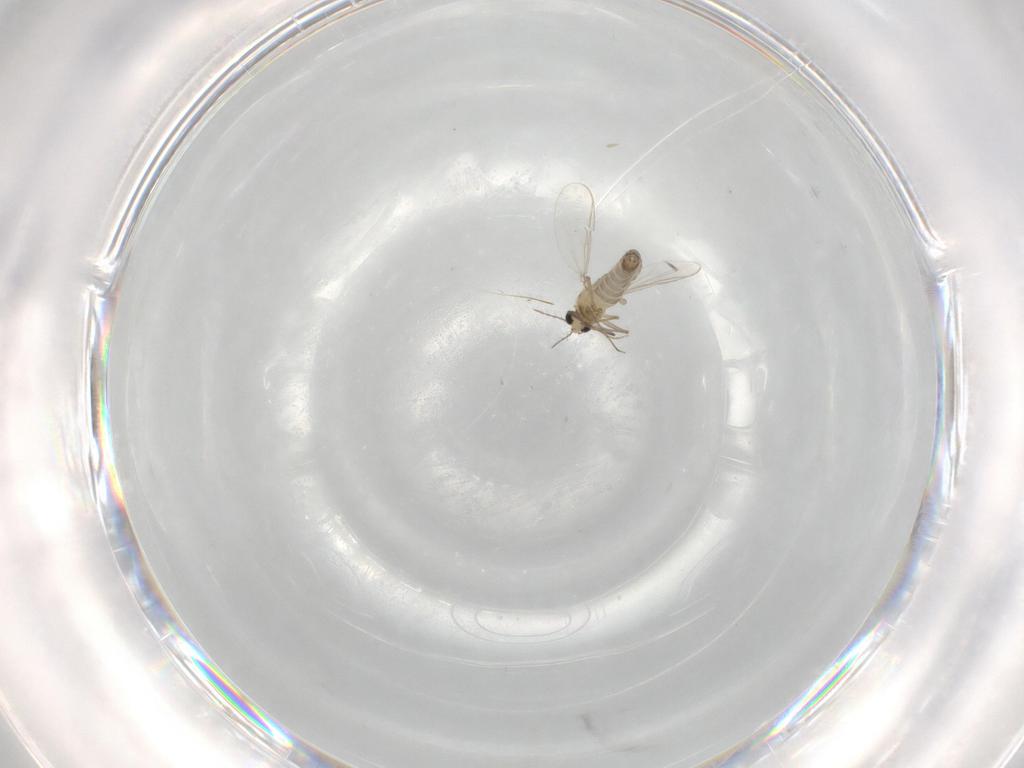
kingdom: Animalia
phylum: Arthropoda
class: Insecta
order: Diptera
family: Chironomidae
